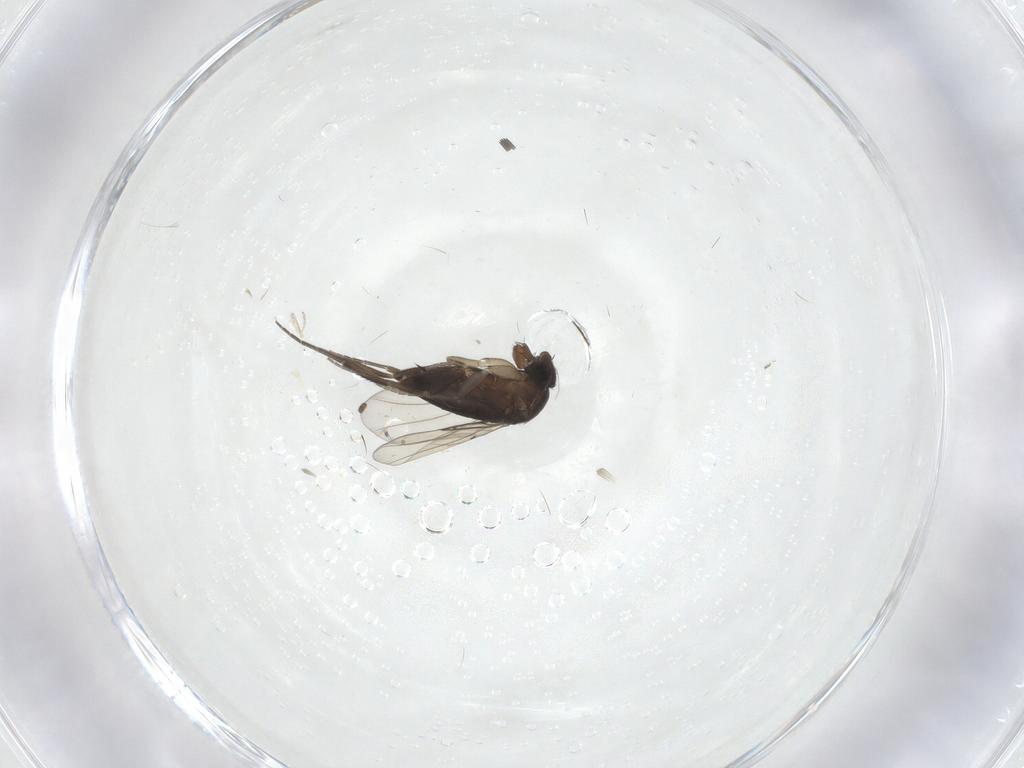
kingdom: Animalia
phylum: Arthropoda
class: Insecta
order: Diptera
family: Phoridae
